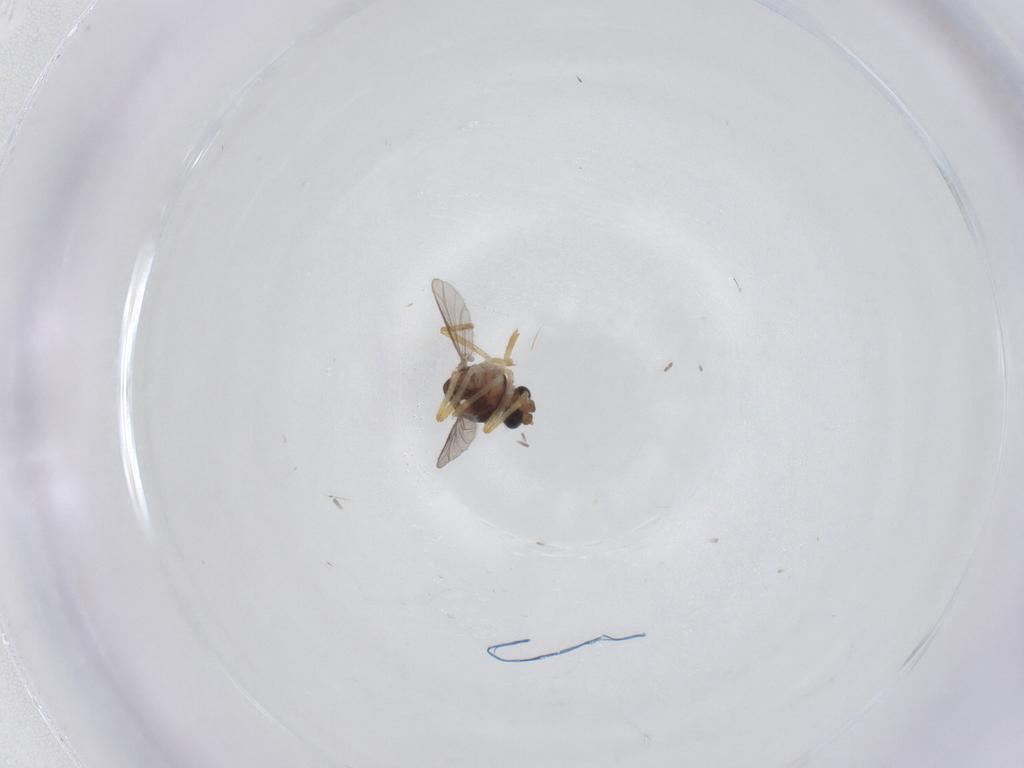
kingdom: Animalia
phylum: Arthropoda
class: Insecta
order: Diptera
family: Ceratopogonidae
